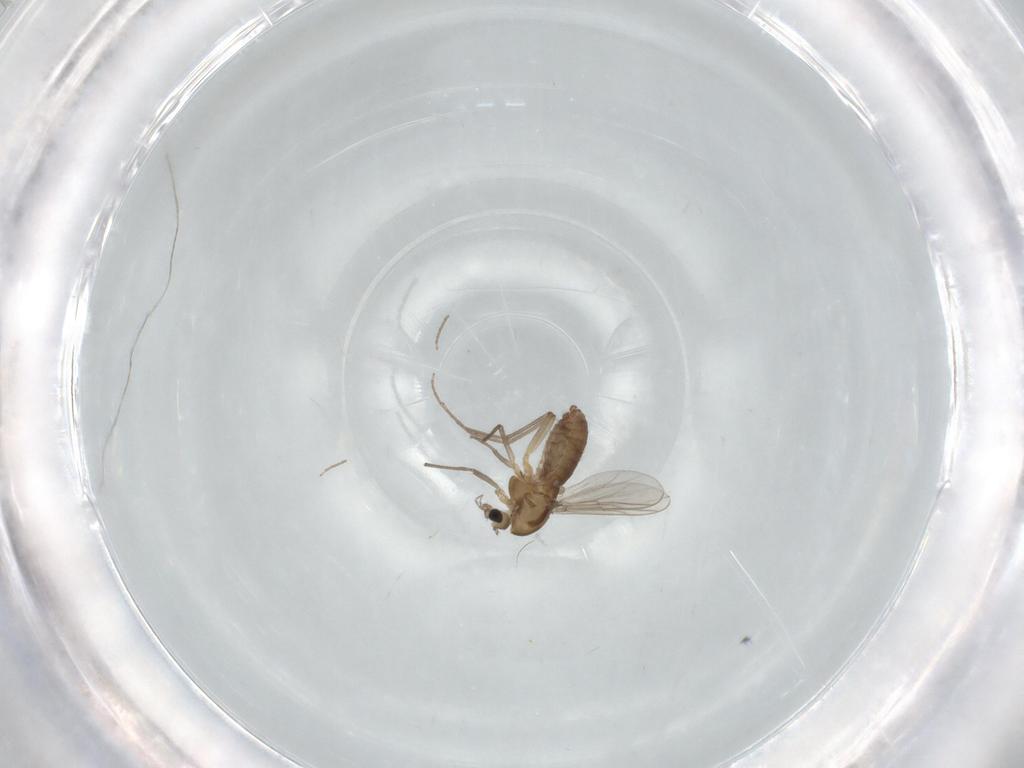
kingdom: Animalia
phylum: Arthropoda
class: Insecta
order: Diptera
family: Chironomidae
